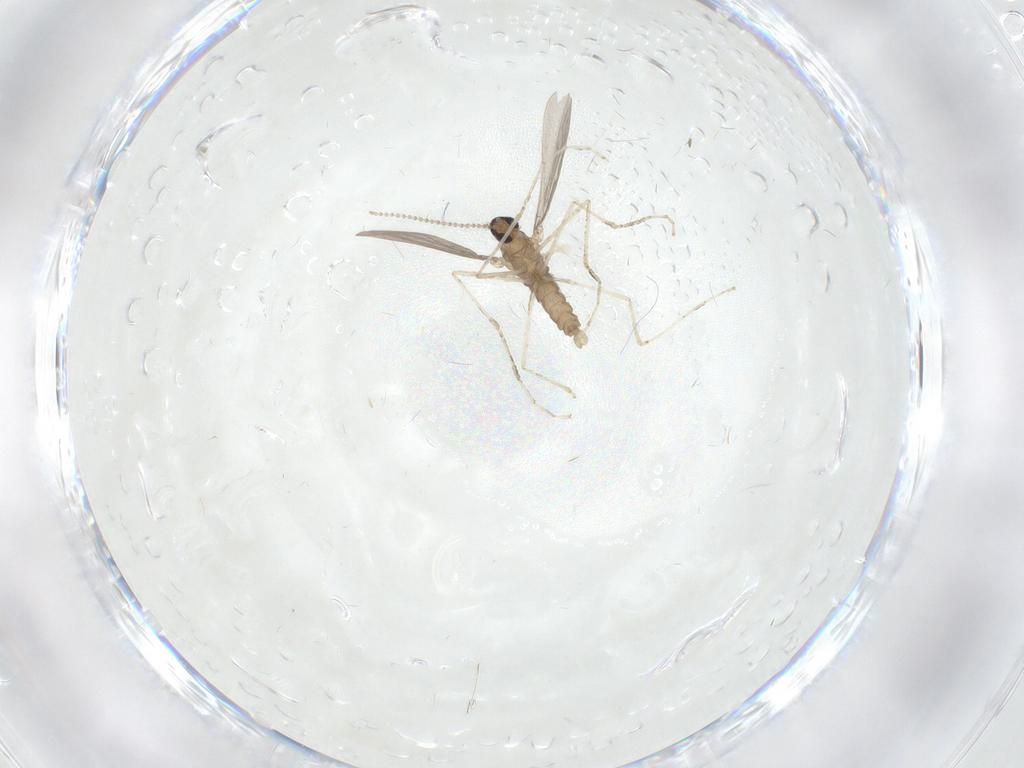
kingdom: Animalia
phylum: Arthropoda
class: Insecta
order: Diptera
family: Cecidomyiidae
